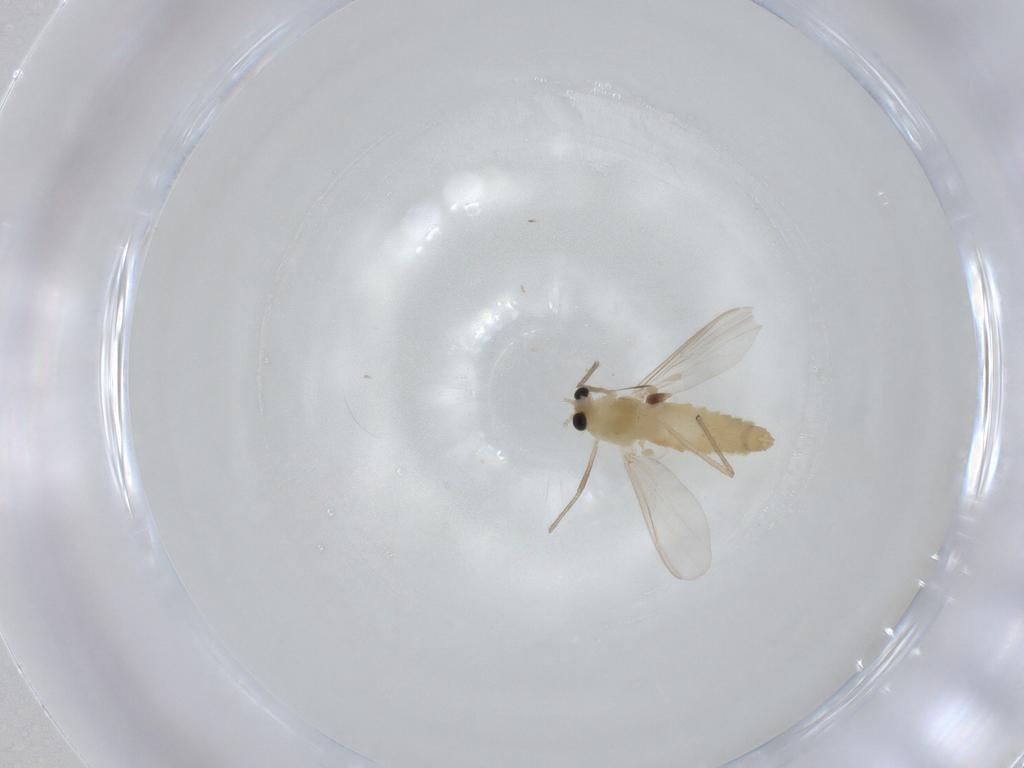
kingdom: Animalia
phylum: Arthropoda
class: Insecta
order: Diptera
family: Chironomidae
